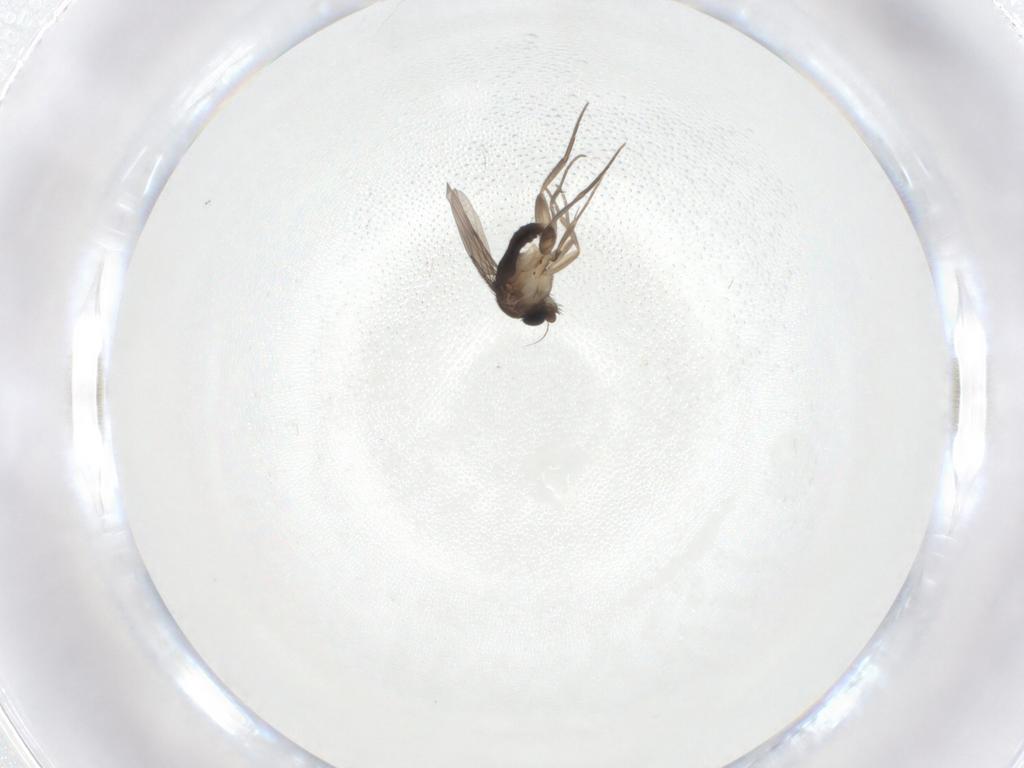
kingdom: Animalia
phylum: Arthropoda
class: Insecta
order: Diptera
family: Phoridae
